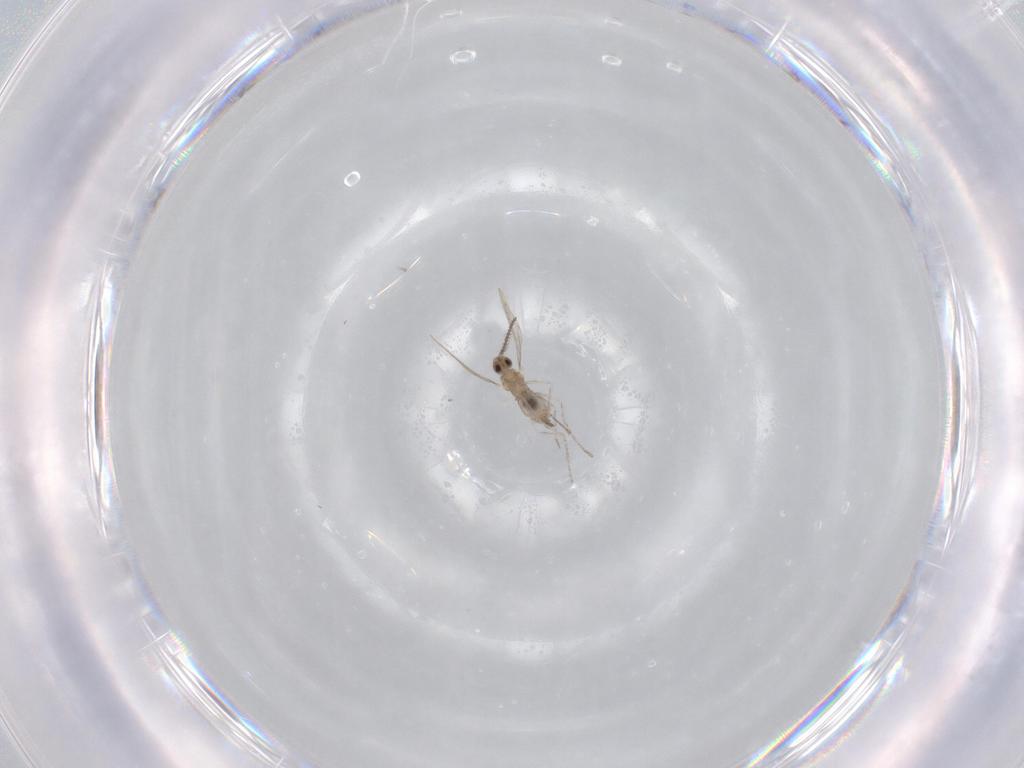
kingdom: Animalia
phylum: Arthropoda
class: Insecta
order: Diptera
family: Cecidomyiidae
